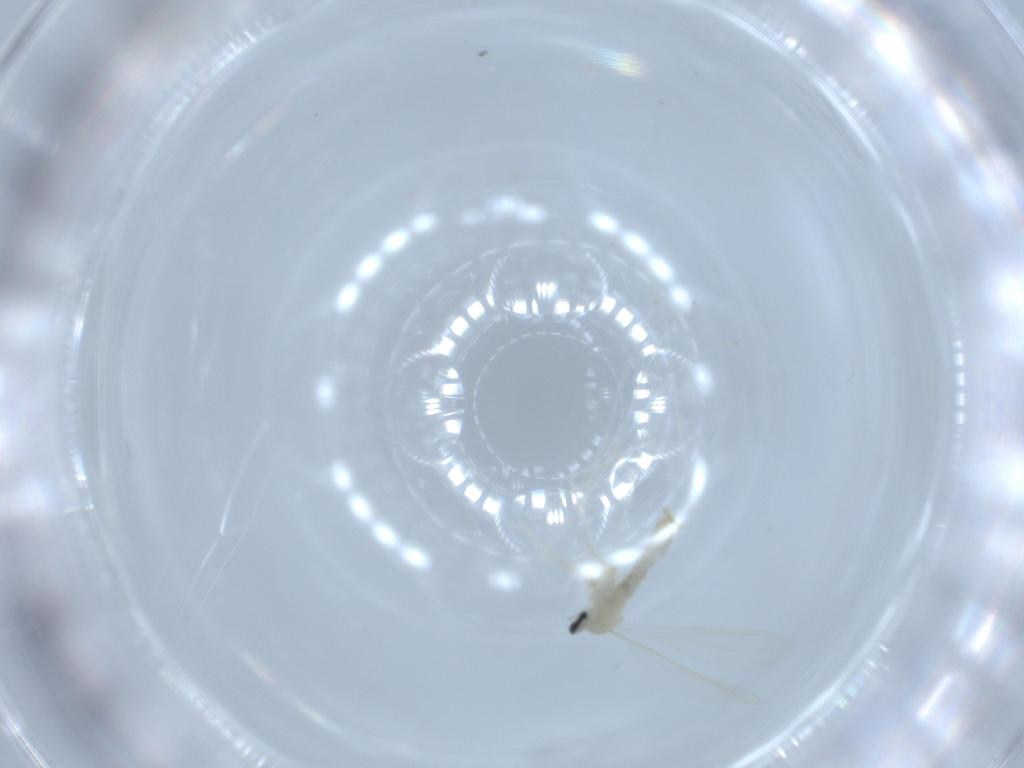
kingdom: Animalia
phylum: Arthropoda
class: Insecta
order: Diptera
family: Cecidomyiidae
